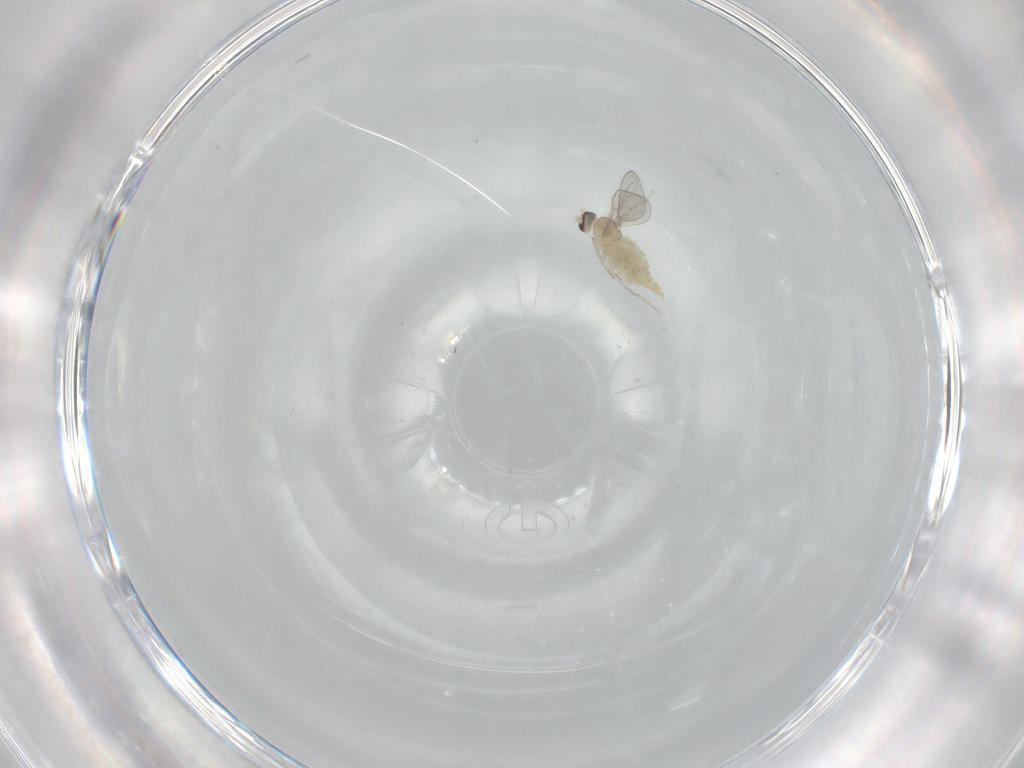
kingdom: Animalia
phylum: Arthropoda
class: Insecta
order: Diptera
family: Cecidomyiidae
